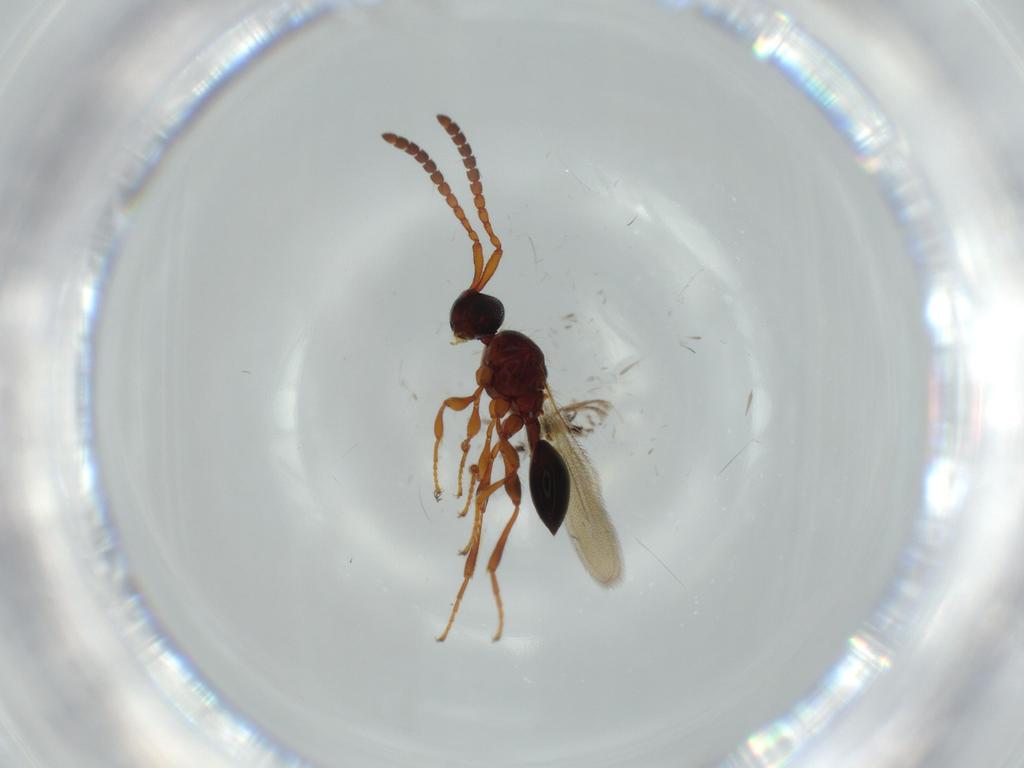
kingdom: Animalia
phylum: Arthropoda
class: Insecta
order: Hymenoptera
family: Diapriidae
